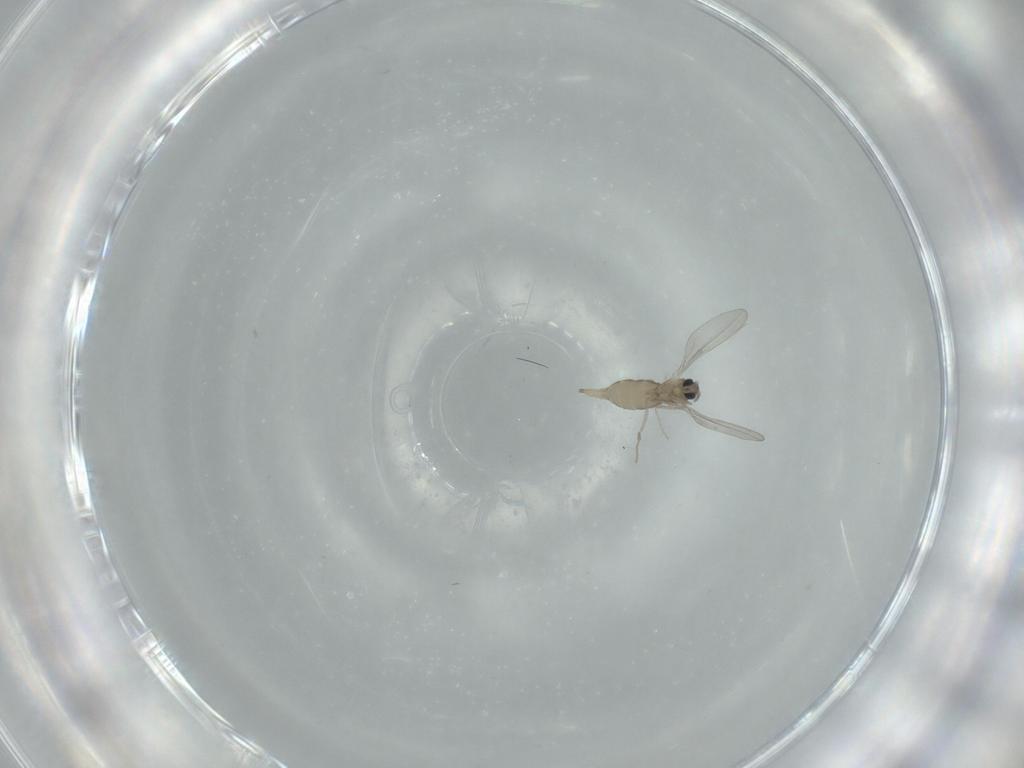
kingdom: Animalia
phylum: Arthropoda
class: Insecta
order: Diptera
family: Cecidomyiidae
